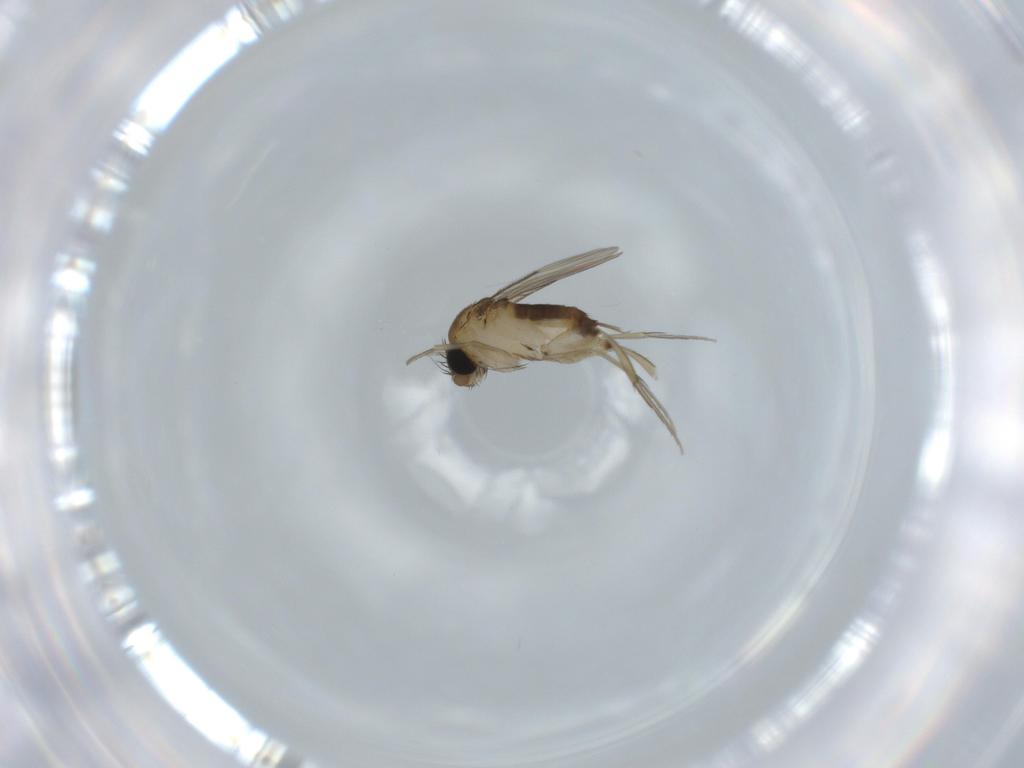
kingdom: Animalia
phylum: Arthropoda
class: Insecta
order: Diptera
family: Phoridae
